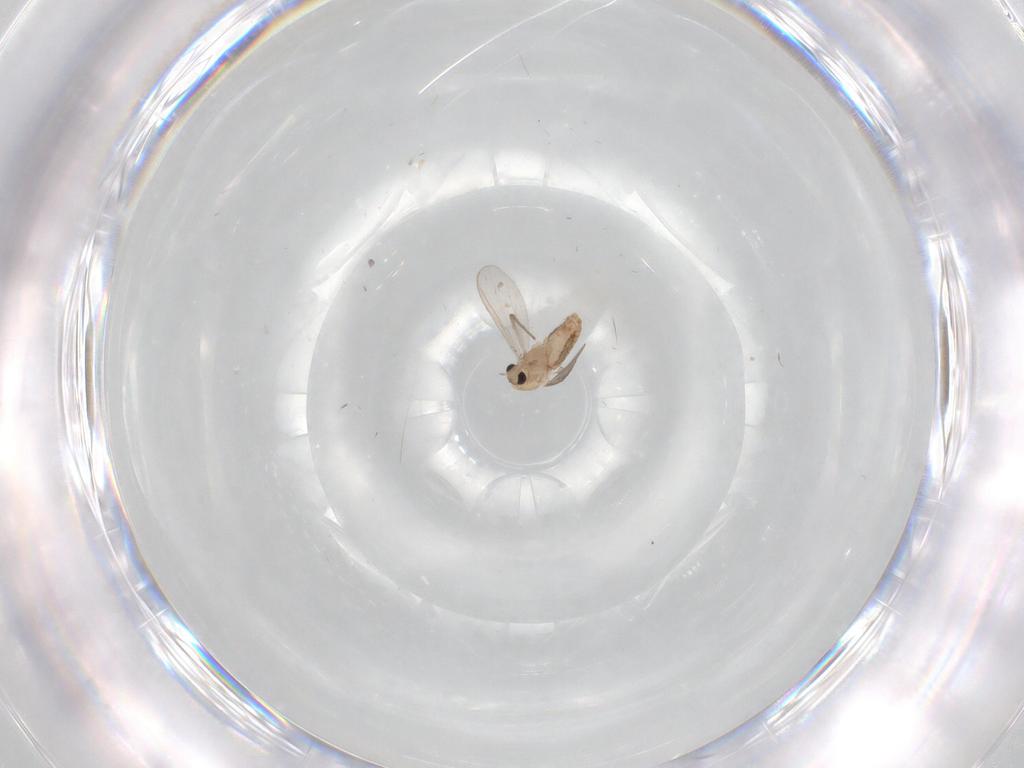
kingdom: Animalia
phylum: Arthropoda
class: Insecta
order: Diptera
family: Chironomidae
